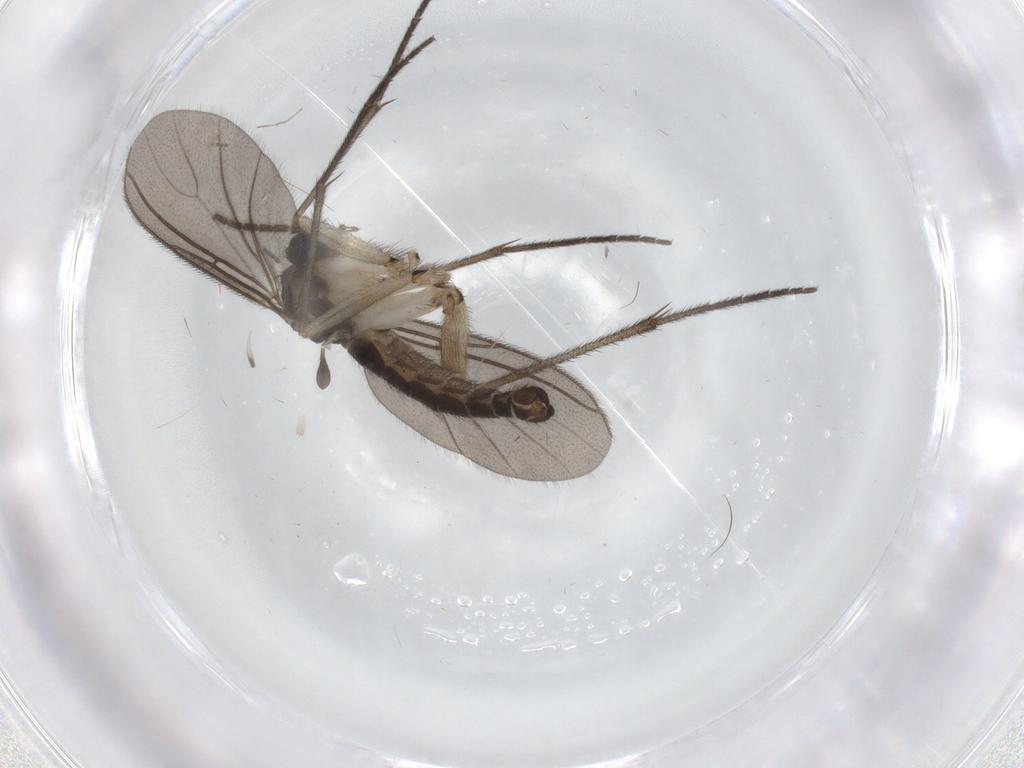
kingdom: Animalia
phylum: Arthropoda
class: Insecta
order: Diptera
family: Sciaridae
